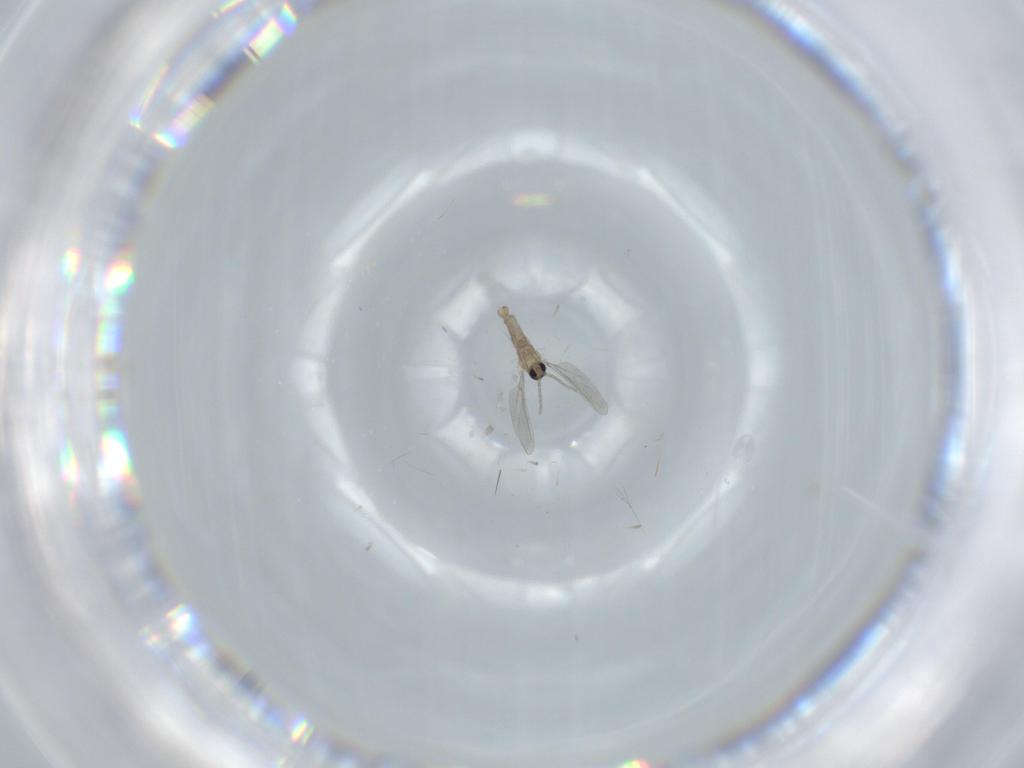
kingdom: Animalia
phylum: Arthropoda
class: Insecta
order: Diptera
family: Cecidomyiidae
